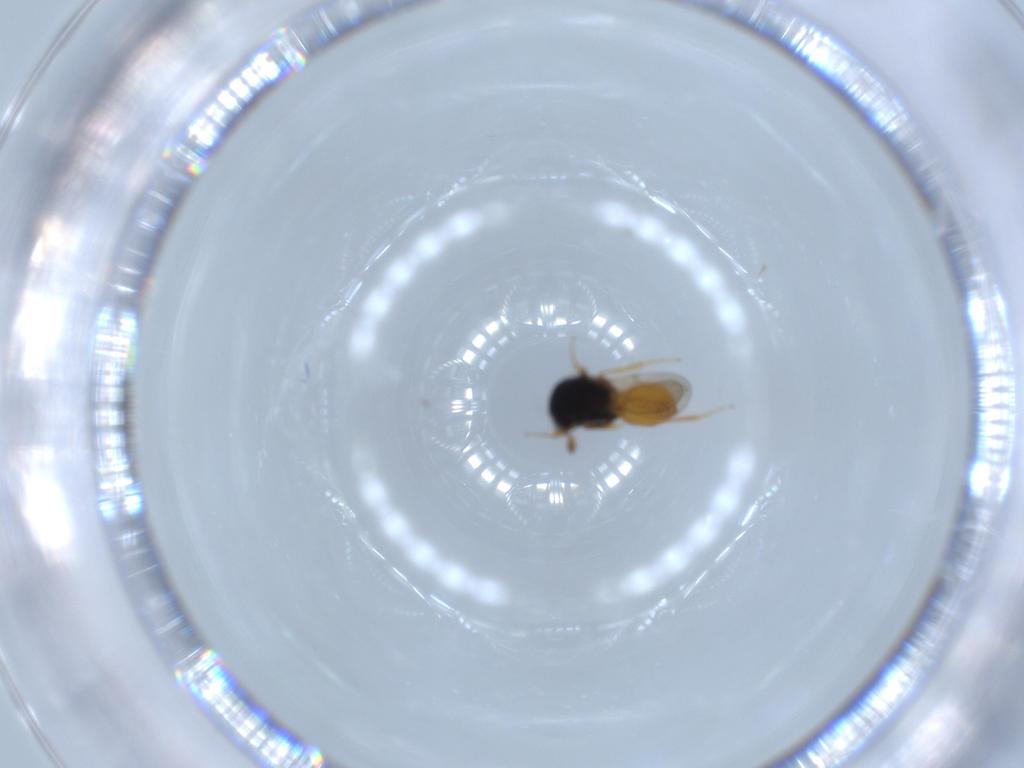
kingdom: Animalia
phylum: Arthropoda
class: Insecta
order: Hymenoptera
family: Scelionidae
